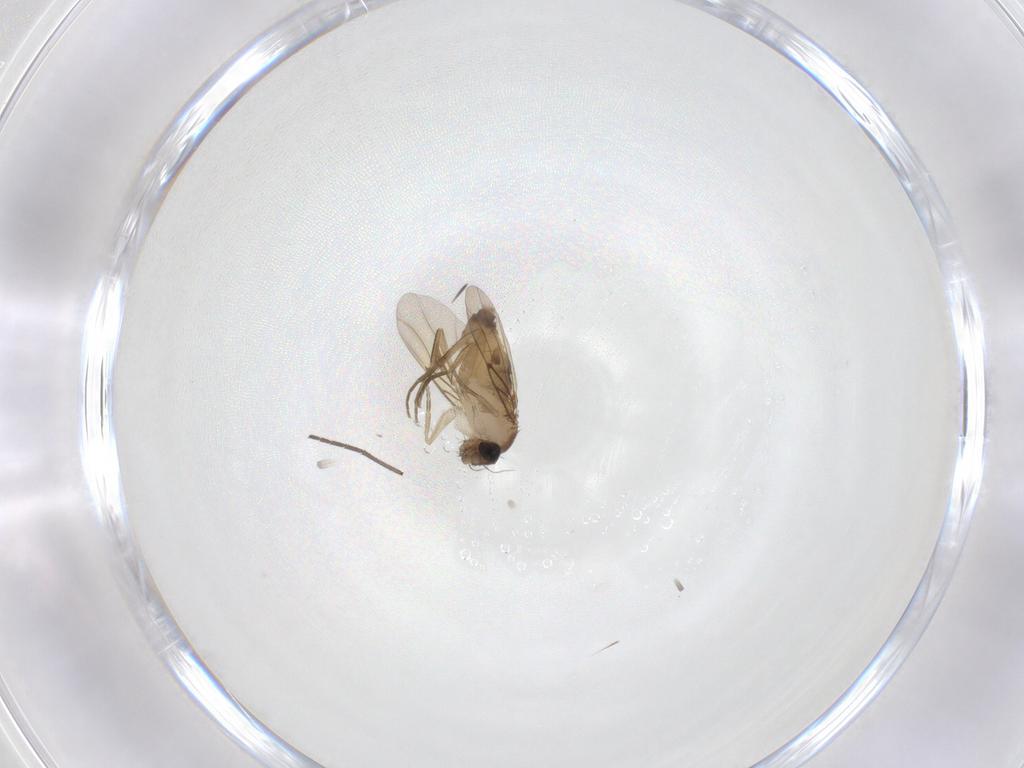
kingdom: Animalia
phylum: Arthropoda
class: Insecta
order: Diptera
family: Phoridae
